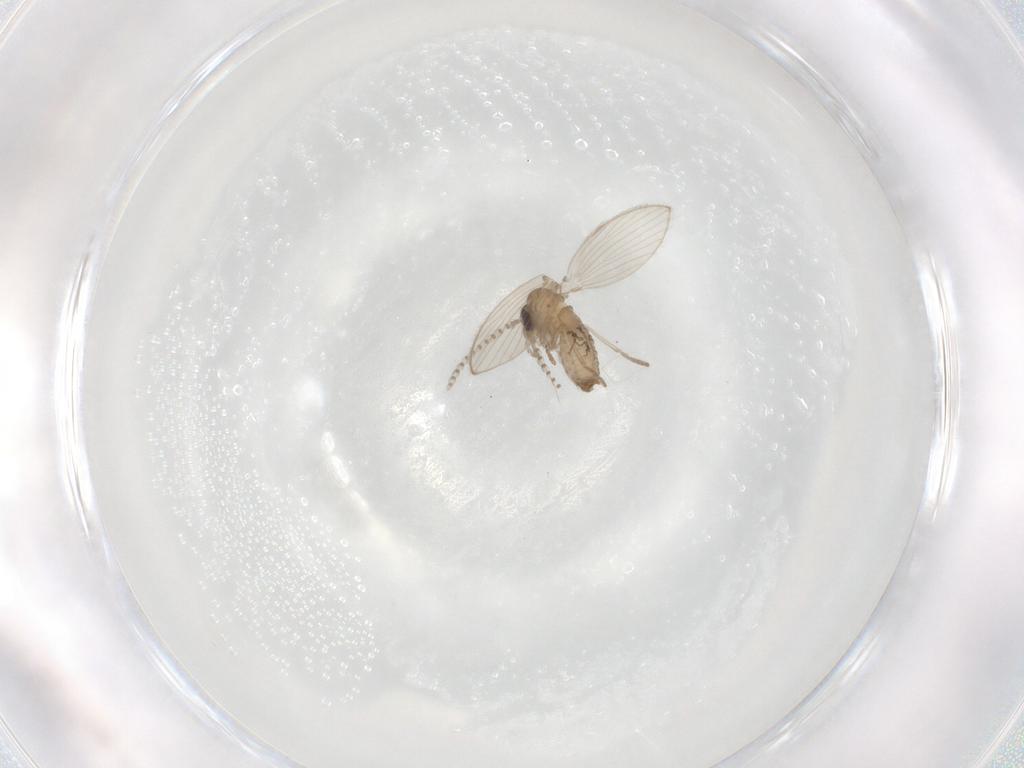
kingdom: Animalia
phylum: Arthropoda
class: Insecta
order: Diptera
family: Psychodidae
